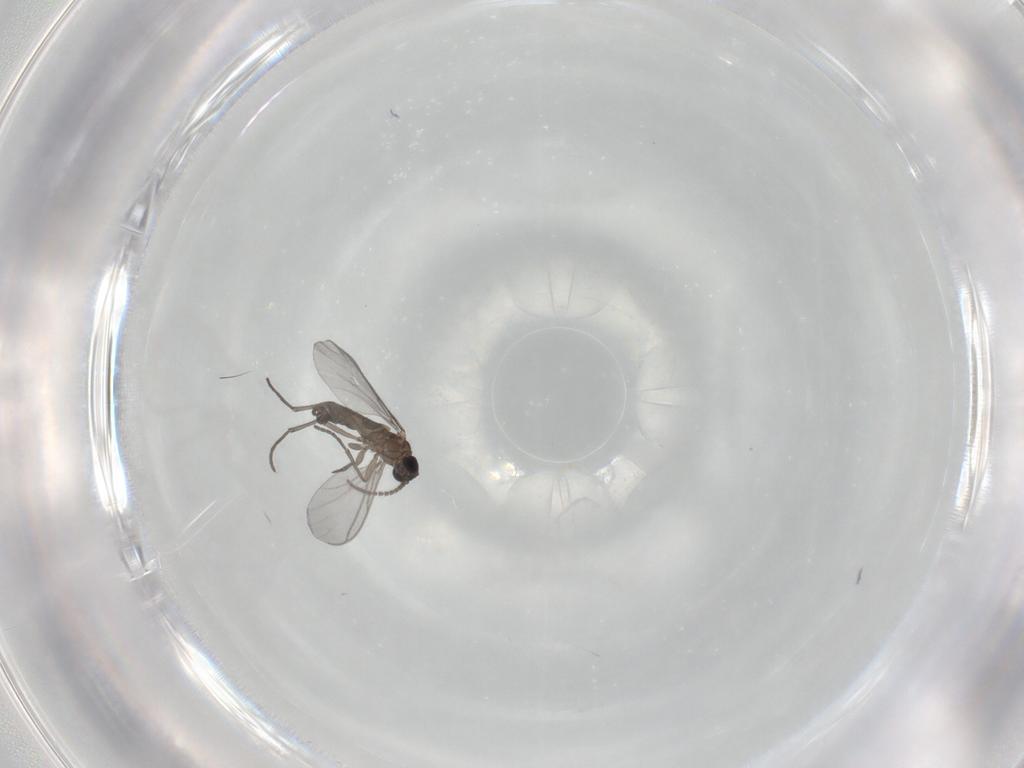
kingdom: Animalia
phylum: Arthropoda
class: Insecta
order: Diptera
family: Sciaridae
